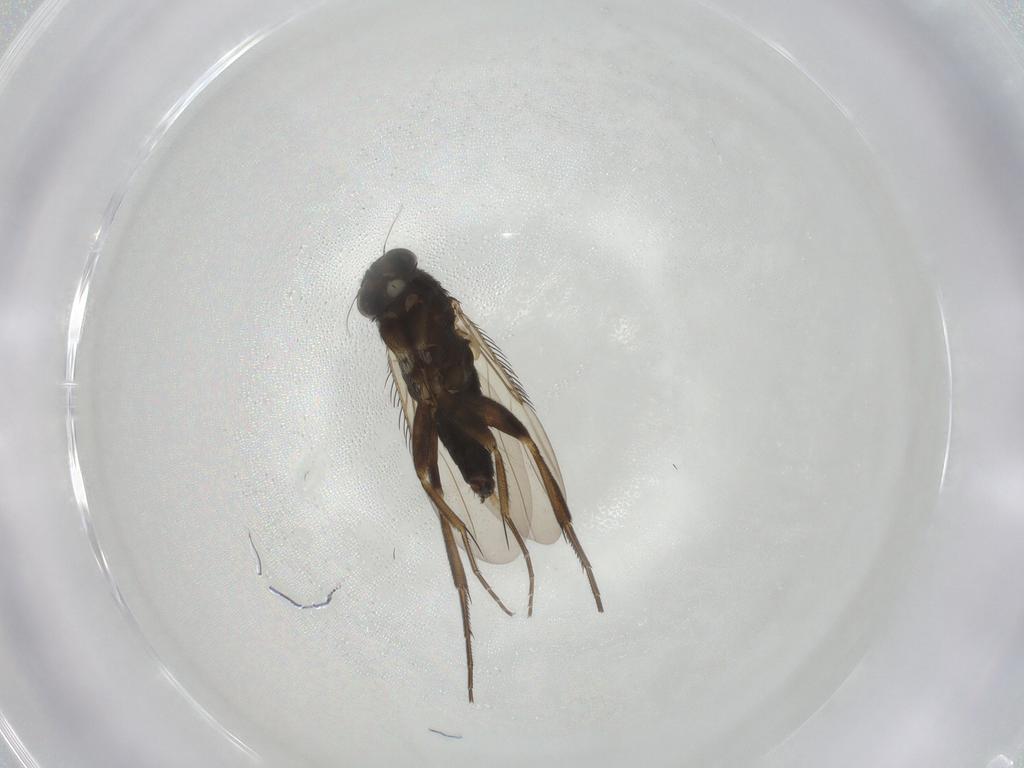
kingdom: Animalia
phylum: Arthropoda
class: Insecta
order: Diptera
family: Phoridae
